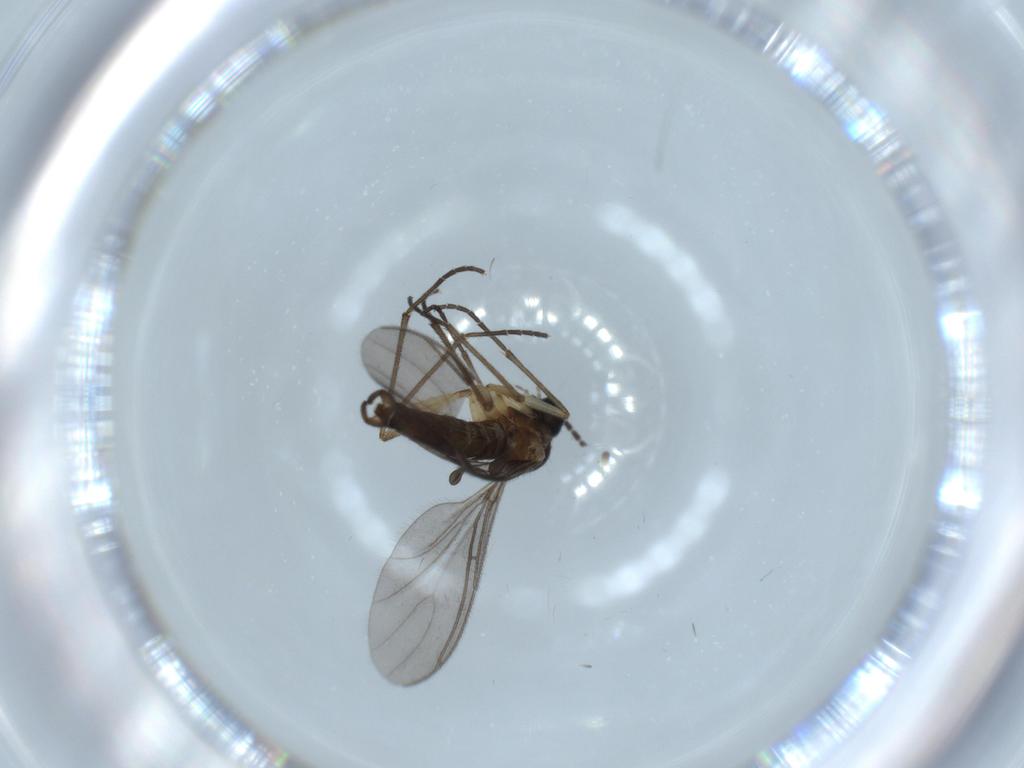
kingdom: Animalia
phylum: Arthropoda
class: Insecta
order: Diptera
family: Sciaridae
